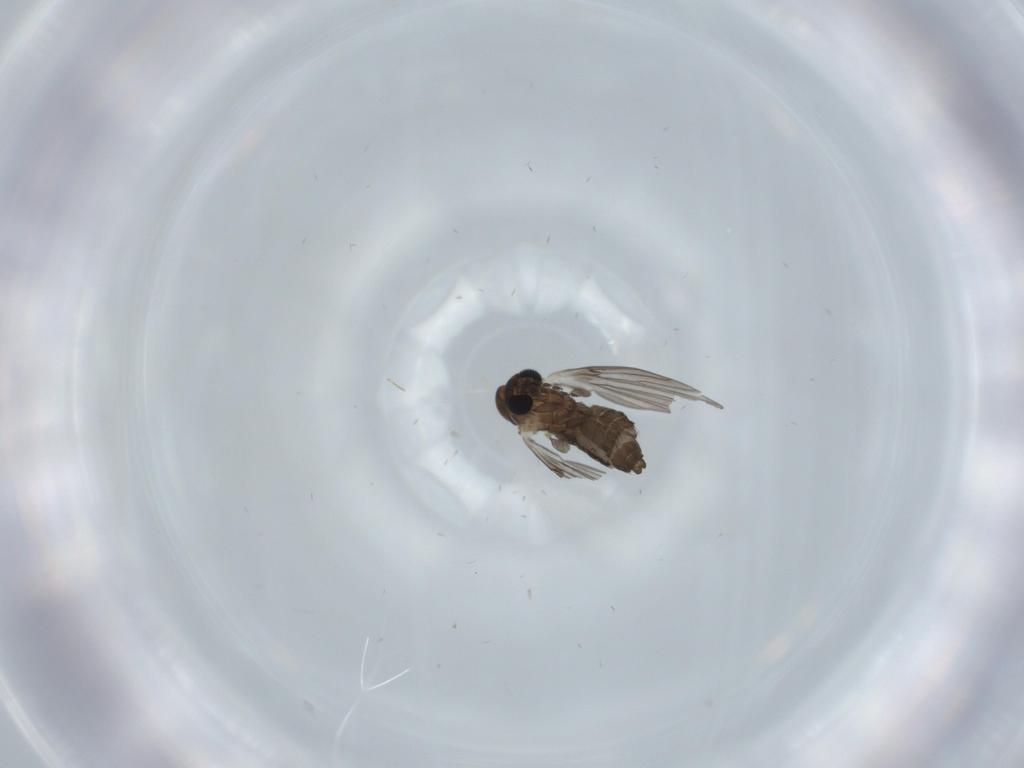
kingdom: Animalia
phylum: Arthropoda
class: Insecta
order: Diptera
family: Psychodidae
